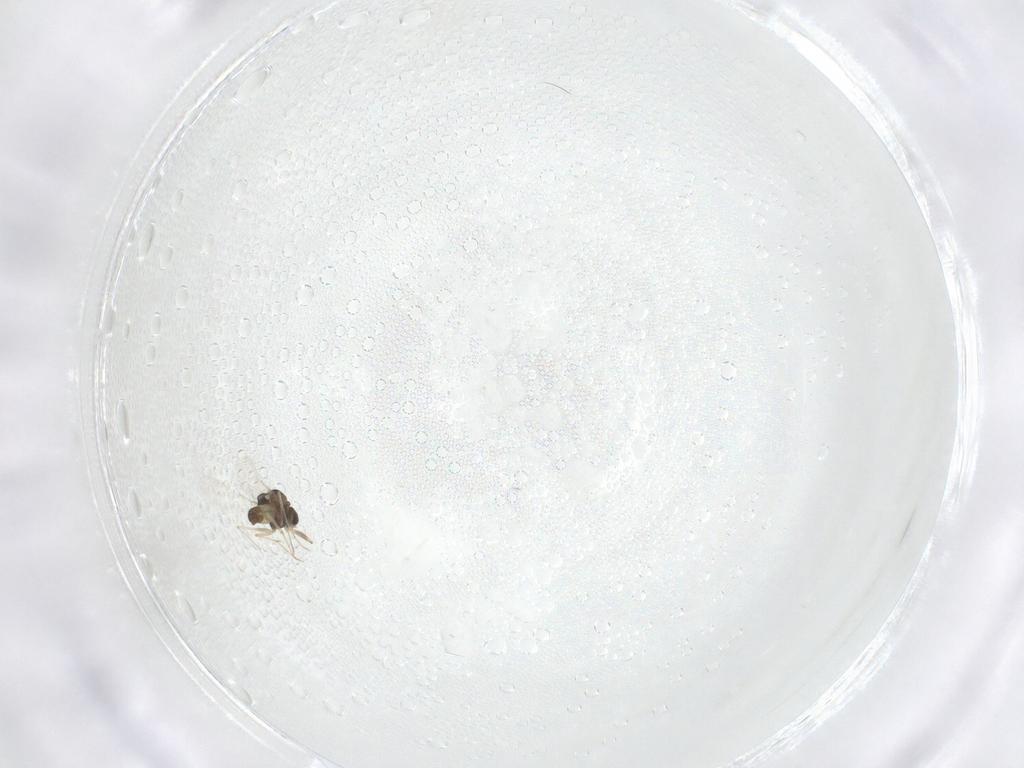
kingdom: Animalia
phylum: Arthropoda
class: Insecta
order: Diptera
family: Chironomidae
